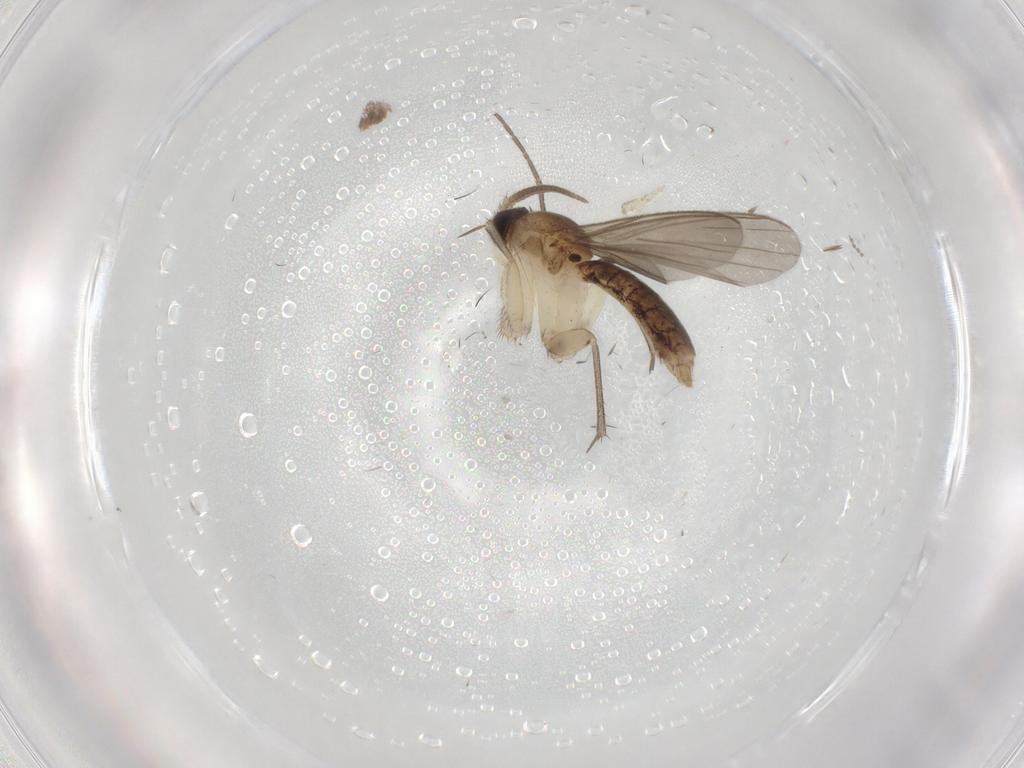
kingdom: Animalia
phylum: Arthropoda
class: Insecta
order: Diptera
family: Mycetophilidae
